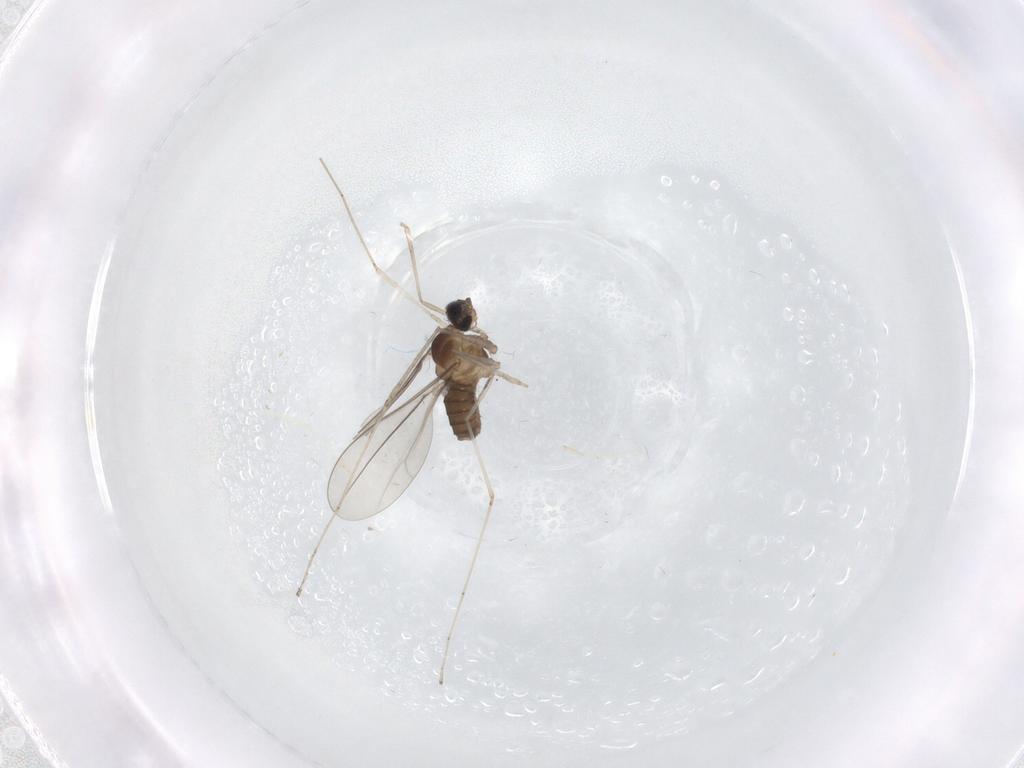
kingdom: Animalia
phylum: Arthropoda
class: Insecta
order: Diptera
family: Cecidomyiidae
